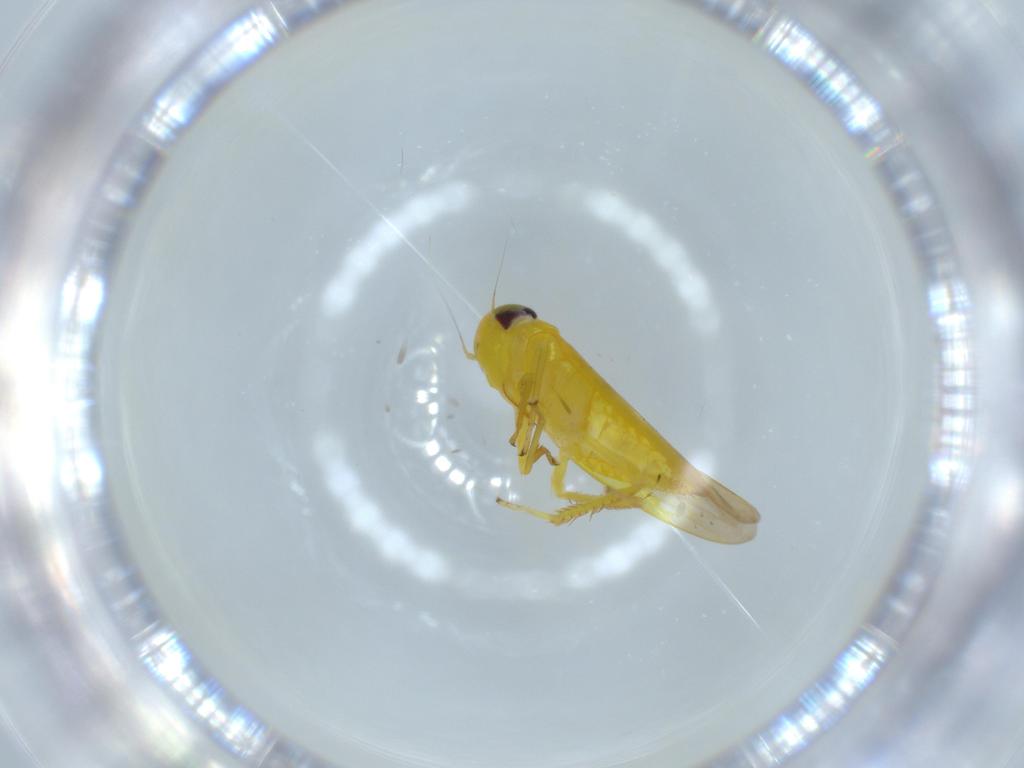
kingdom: Animalia
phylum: Arthropoda
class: Insecta
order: Hemiptera
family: Cicadellidae
